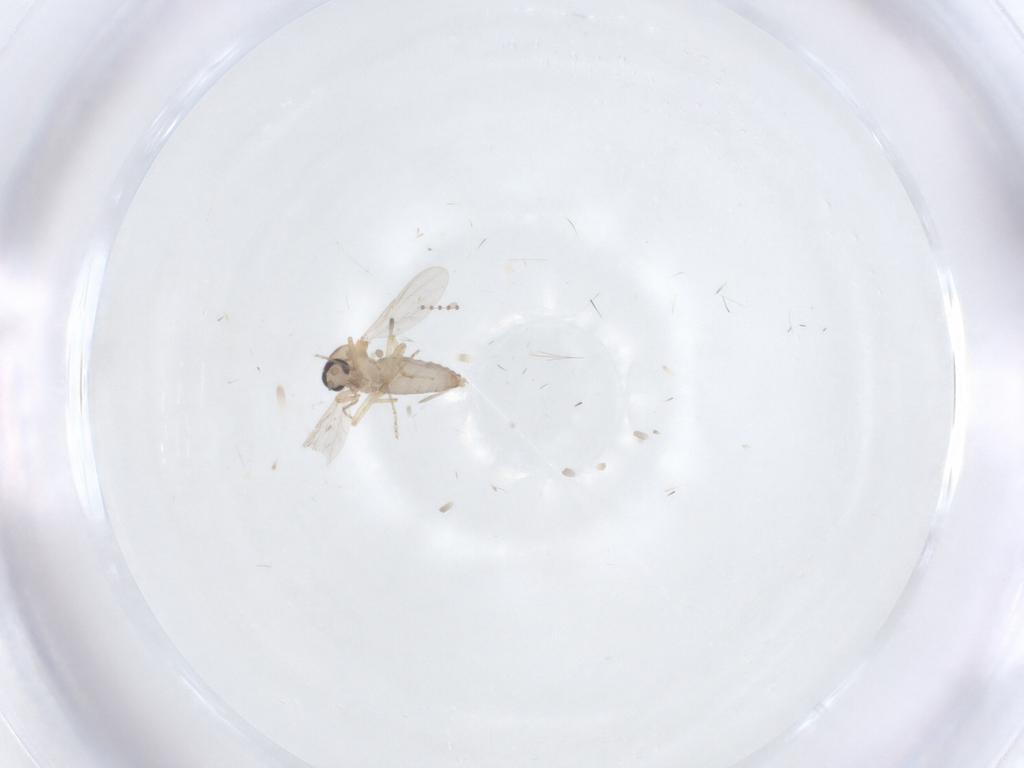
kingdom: Animalia
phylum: Arthropoda
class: Insecta
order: Diptera
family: Ceratopogonidae
